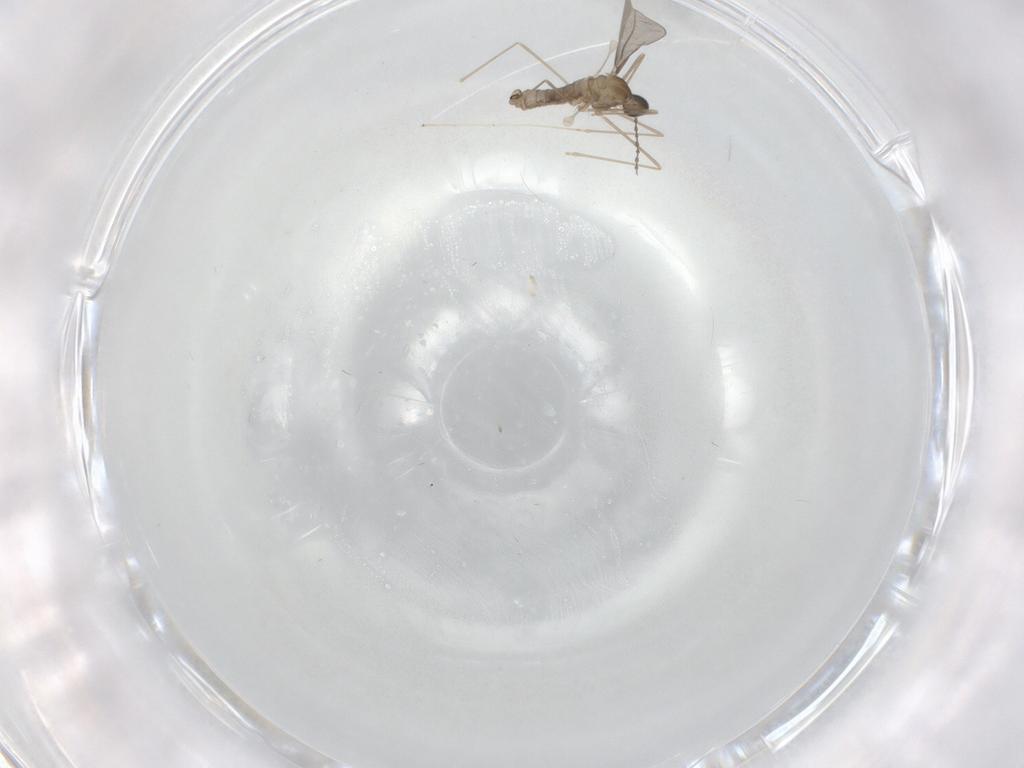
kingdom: Animalia
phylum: Arthropoda
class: Insecta
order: Diptera
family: Cecidomyiidae
